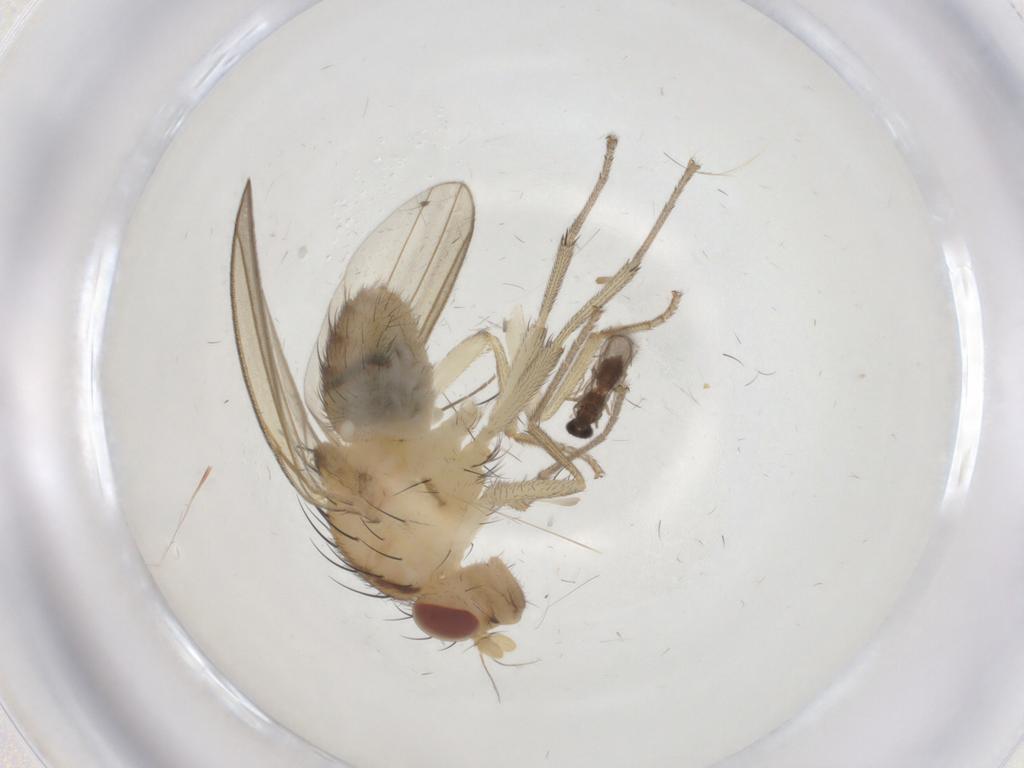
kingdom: Animalia
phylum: Arthropoda
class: Insecta
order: Diptera
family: Lauxaniidae
